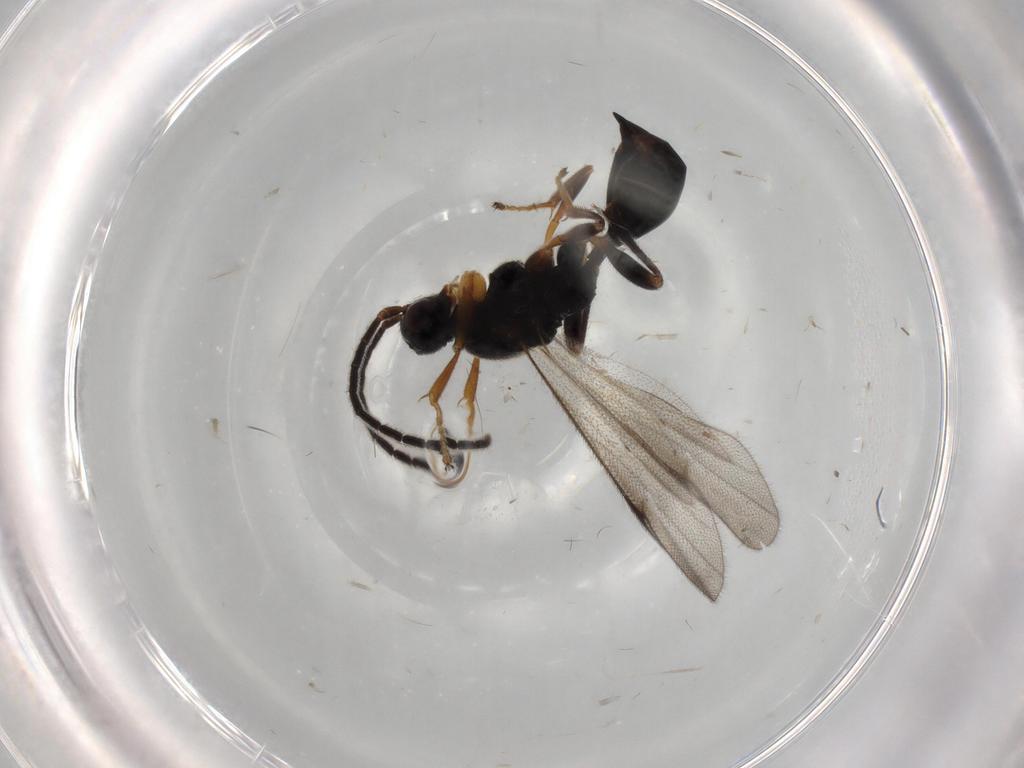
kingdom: Animalia
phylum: Arthropoda
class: Insecta
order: Hymenoptera
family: Proctotrupidae
